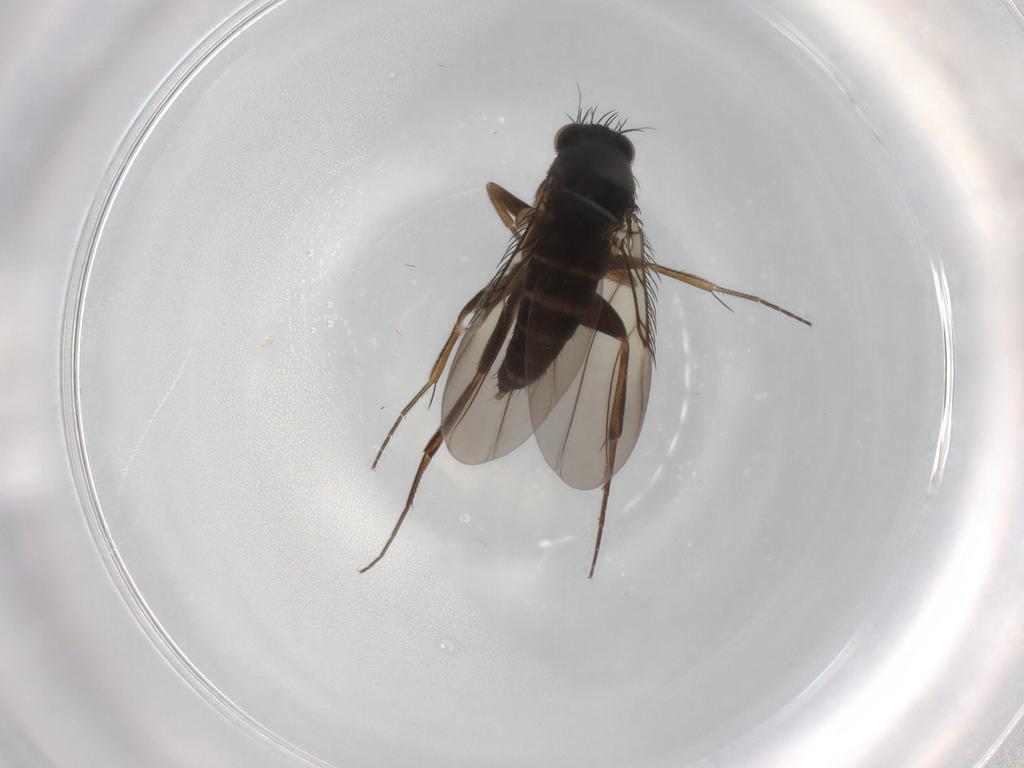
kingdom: Animalia
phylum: Arthropoda
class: Insecta
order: Diptera
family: Phoridae
